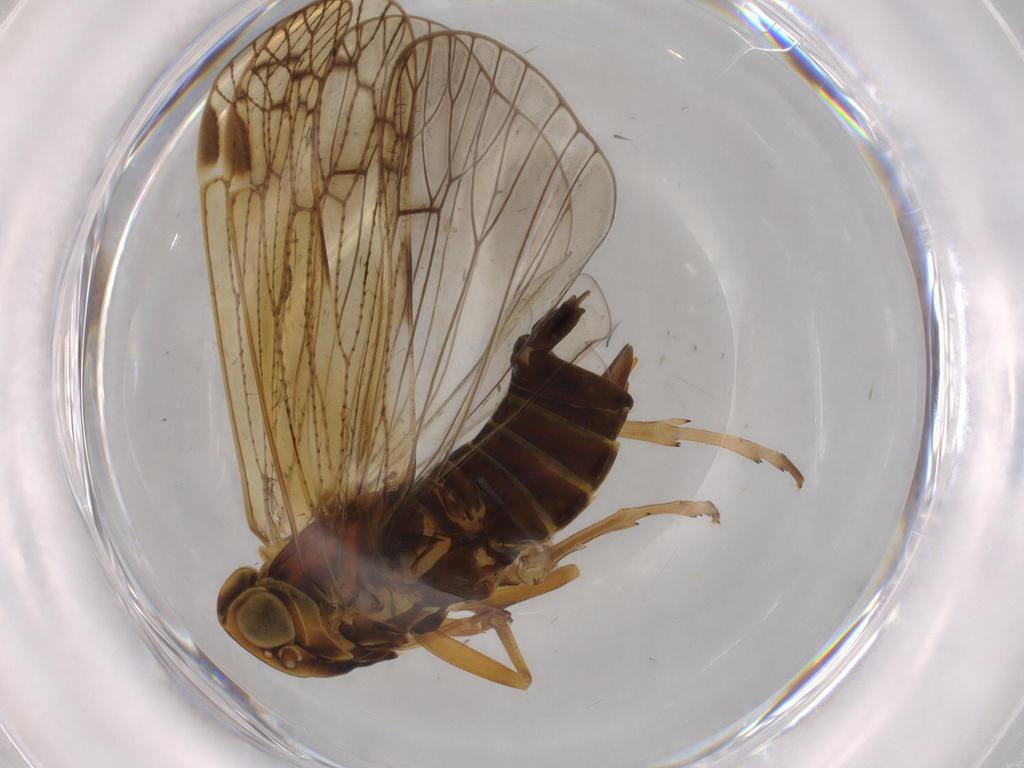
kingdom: Animalia
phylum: Arthropoda
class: Insecta
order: Hemiptera
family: Cixiidae
